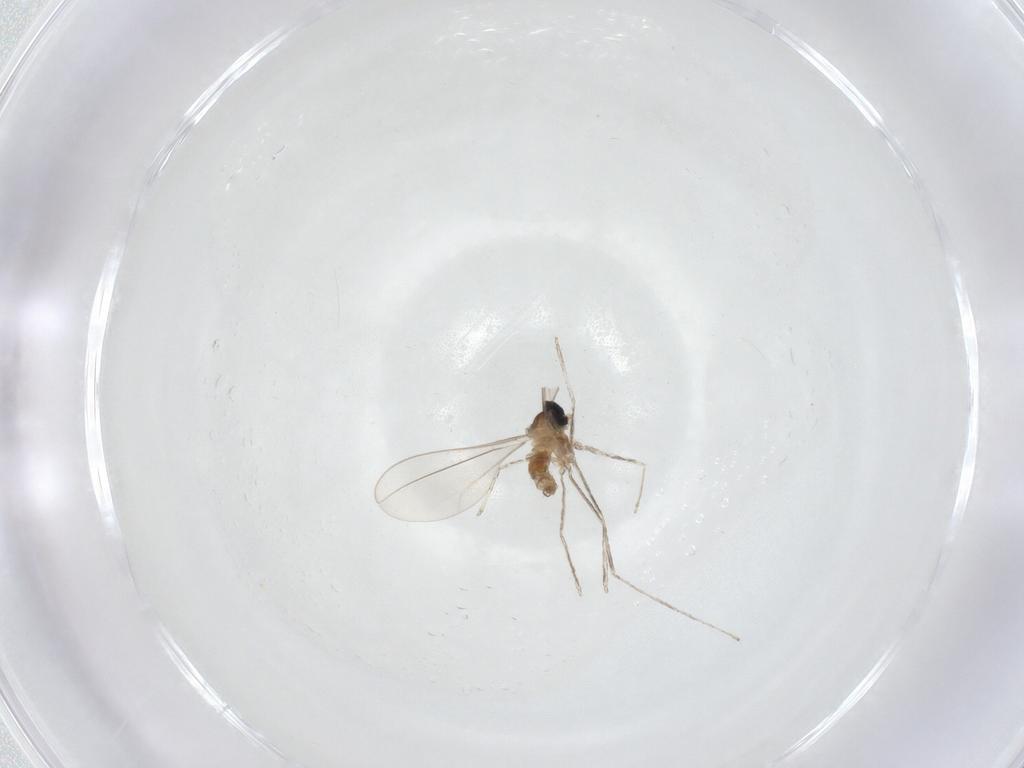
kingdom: Animalia
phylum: Arthropoda
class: Insecta
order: Diptera
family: Cecidomyiidae
